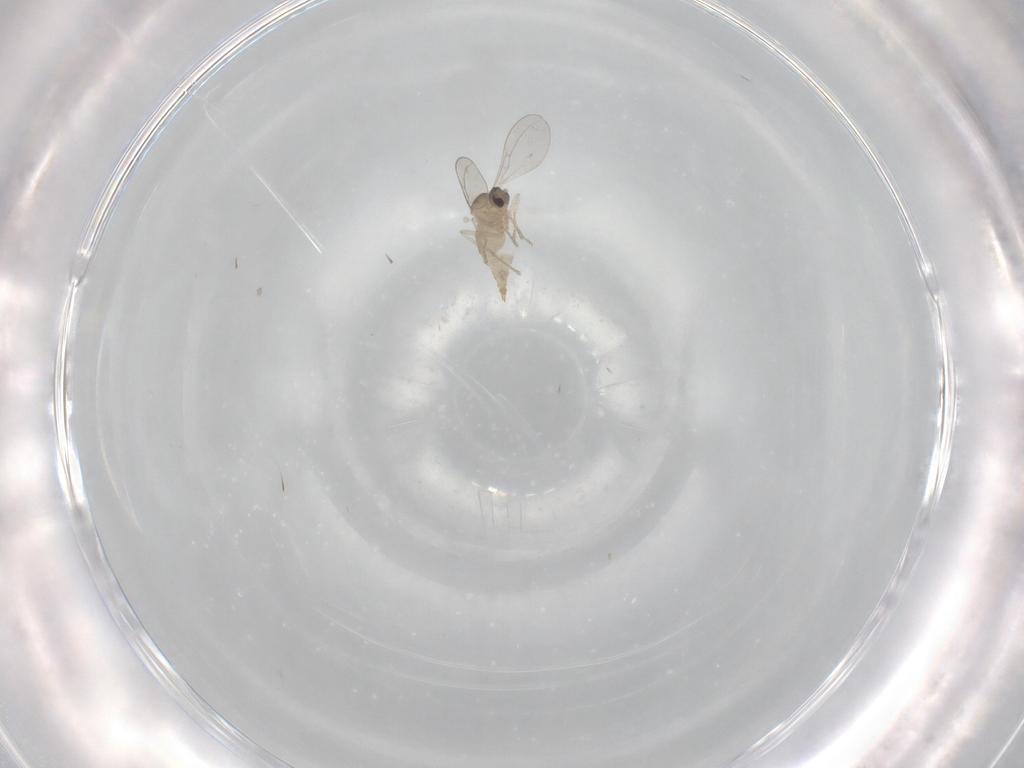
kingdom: Animalia
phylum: Arthropoda
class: Insecta
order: Diptera
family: Cecidomyiidae
